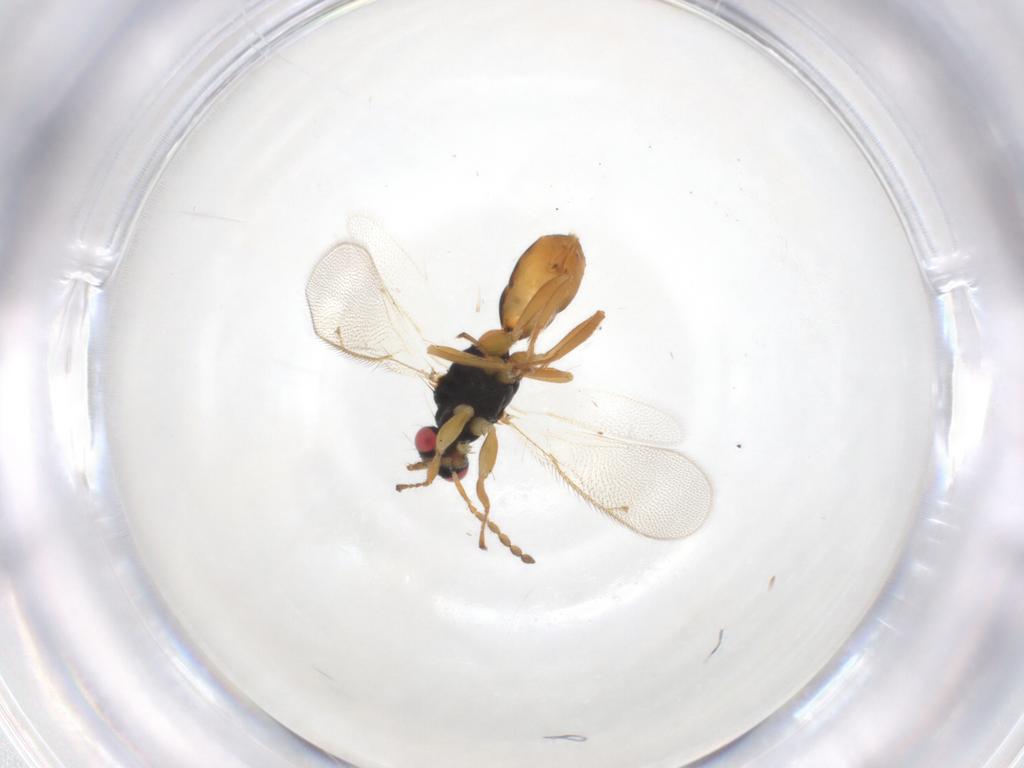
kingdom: Animalia
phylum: Arthropoda
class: Insecta
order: Hymenoptera
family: Eulophidae
